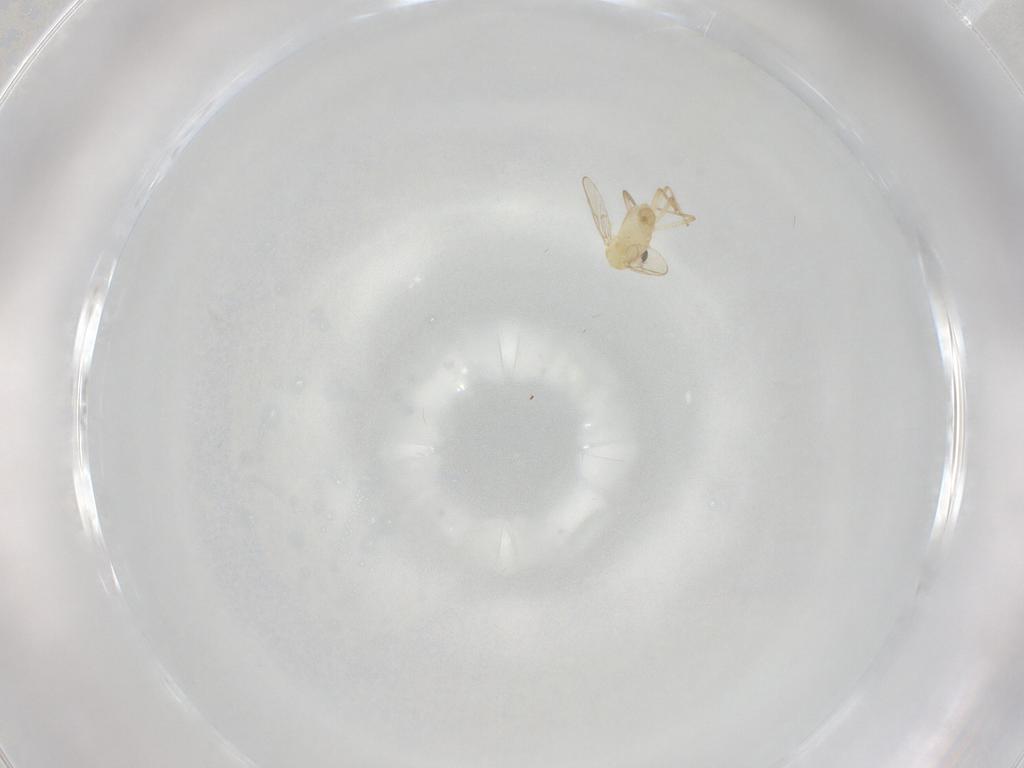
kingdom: Animalia
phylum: Arthropoda
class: Insecta
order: Diptera
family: Chironomidae
